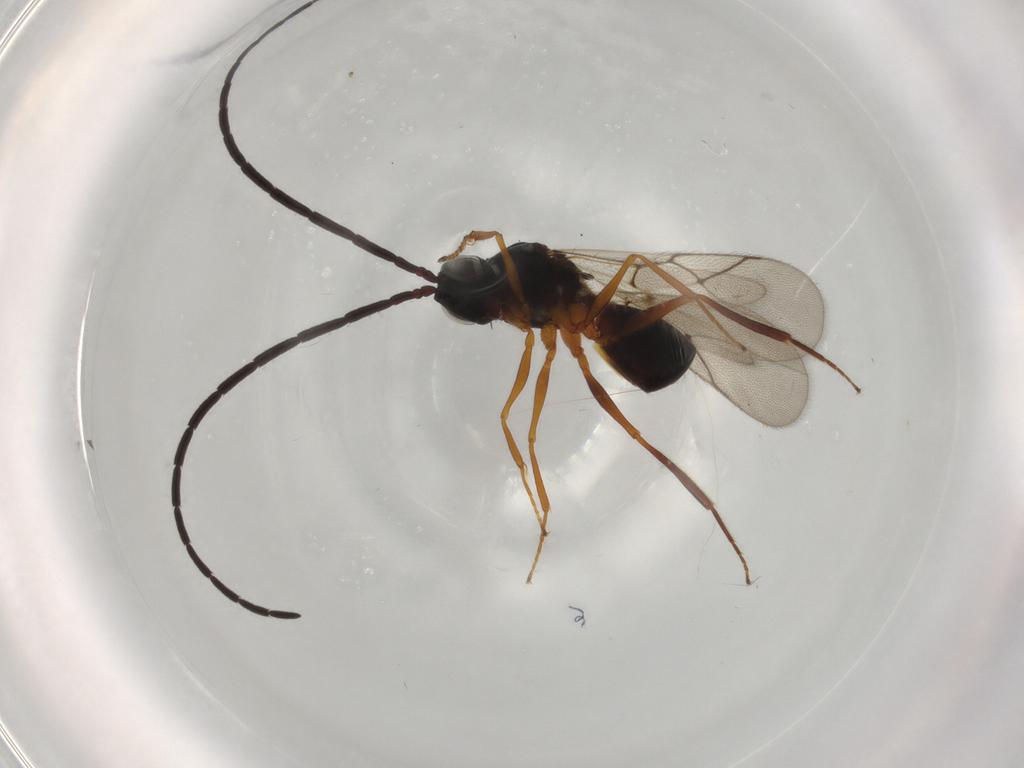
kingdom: Animalia
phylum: Arthropoda
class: Insecta
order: Hymenoptera
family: Figitidae
